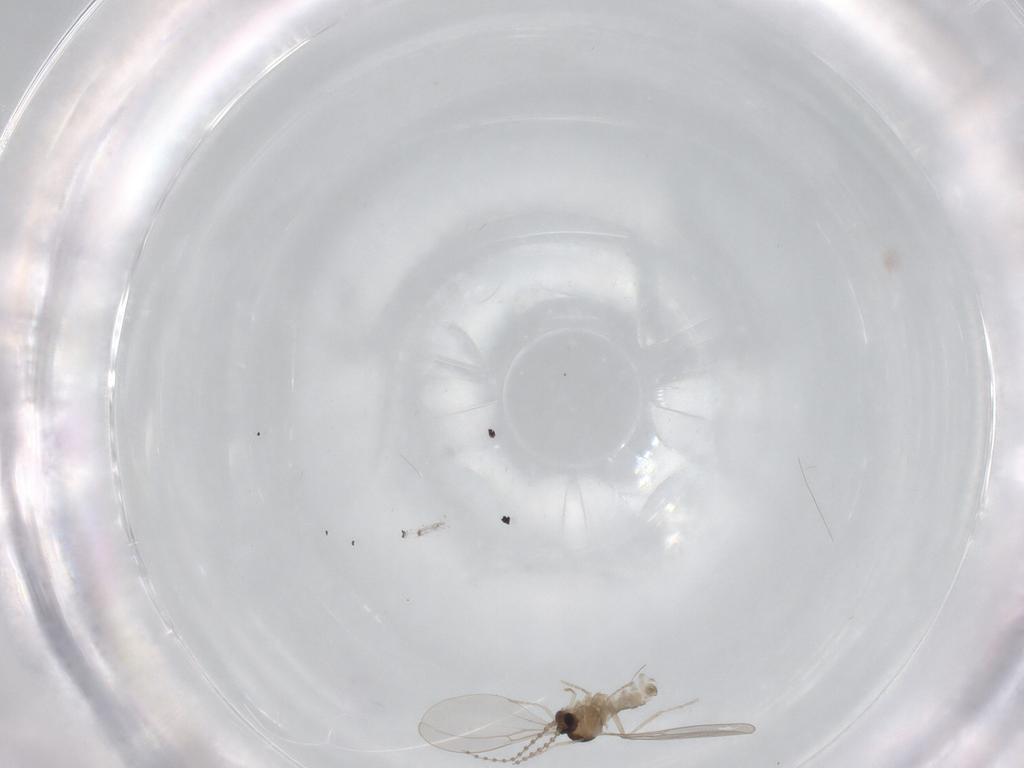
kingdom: Animalia
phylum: Arthropoda
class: Insecta
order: Diptera
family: Cecidomyiidae
